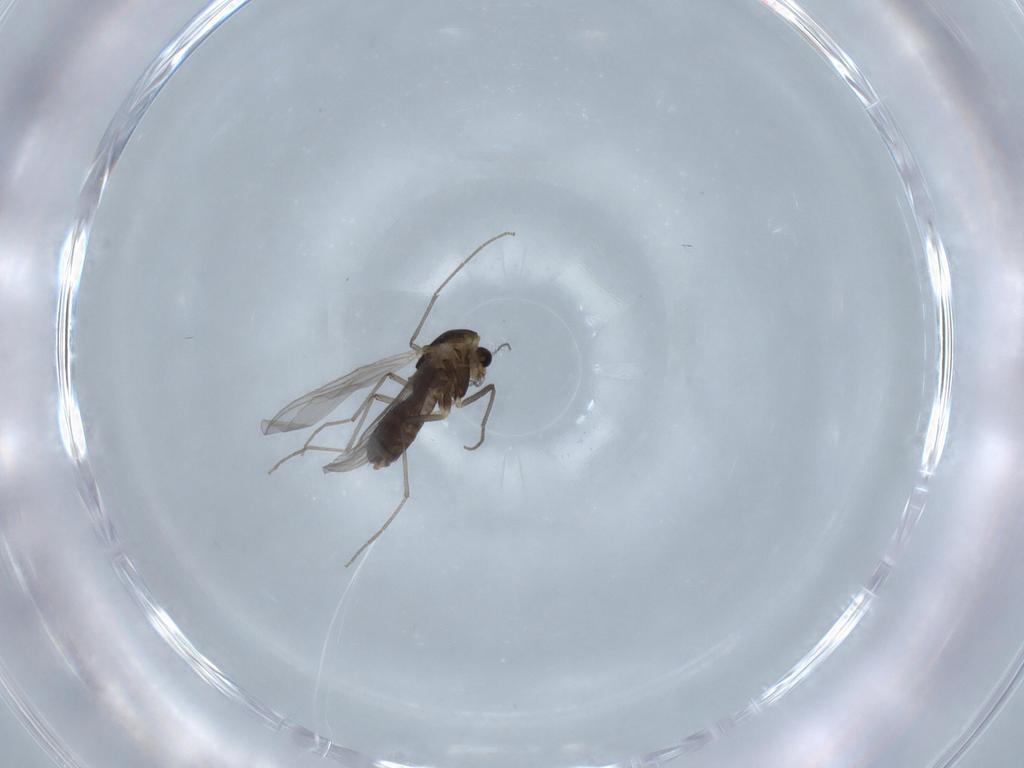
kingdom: Animalia
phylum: Arthropoda
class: Insecta
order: Diptera
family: Chironomidae
